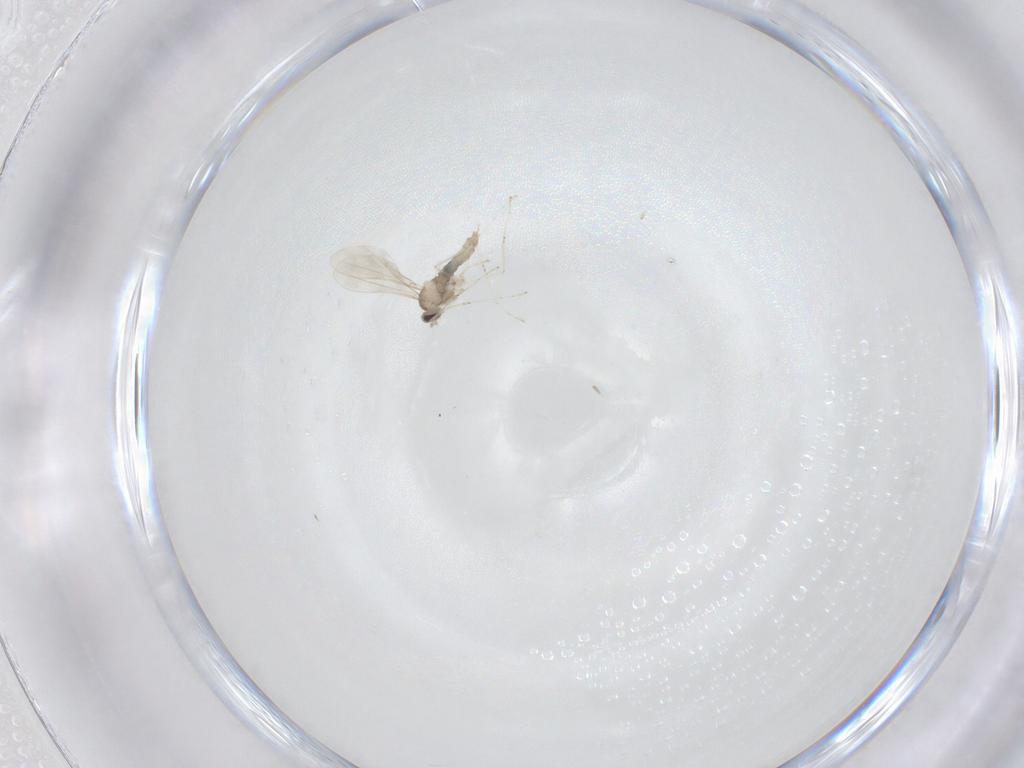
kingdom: Animalia
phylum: Arthropoda
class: Insecta
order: Diptera
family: Cecidomyiidae
